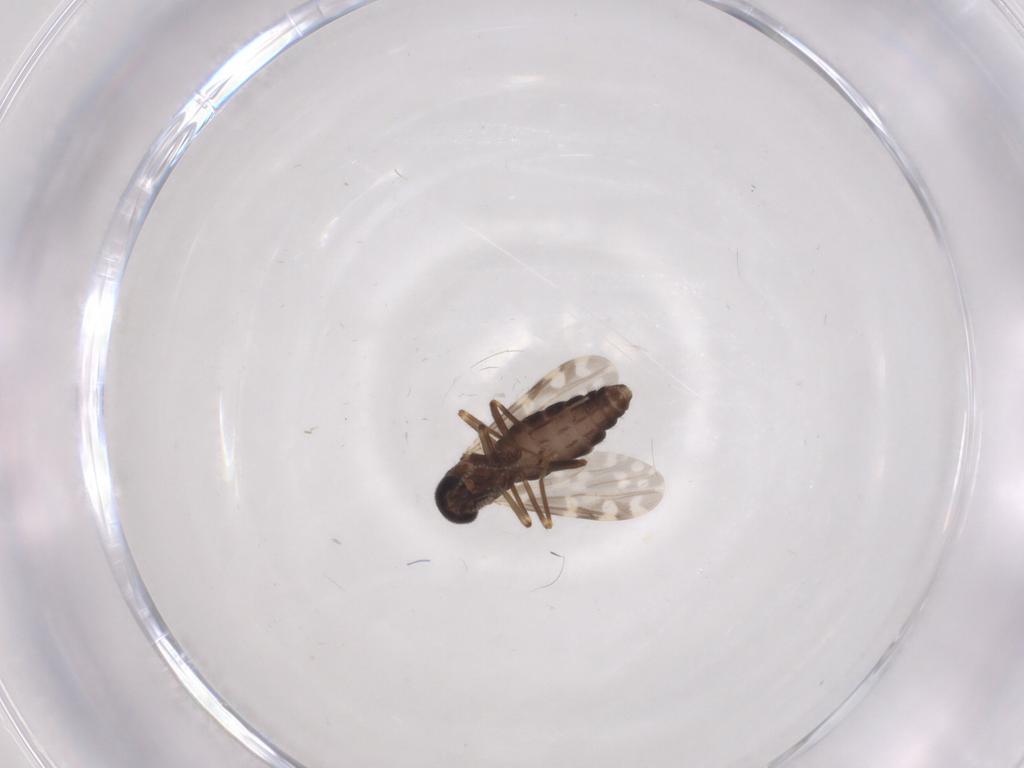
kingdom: Animalia
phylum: Arthropoda
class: Insecta
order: Diptera
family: Ceratopogonidae
